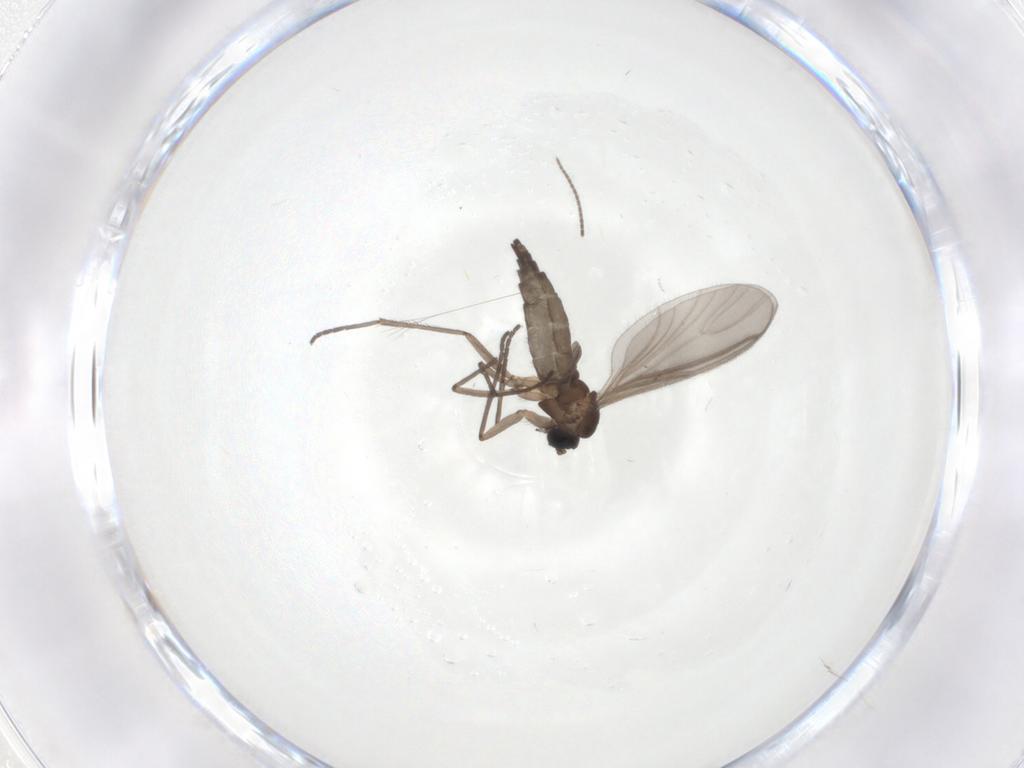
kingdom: Animalia
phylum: Arthropoda
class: Insecta
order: Diptera
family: Sciaridae
